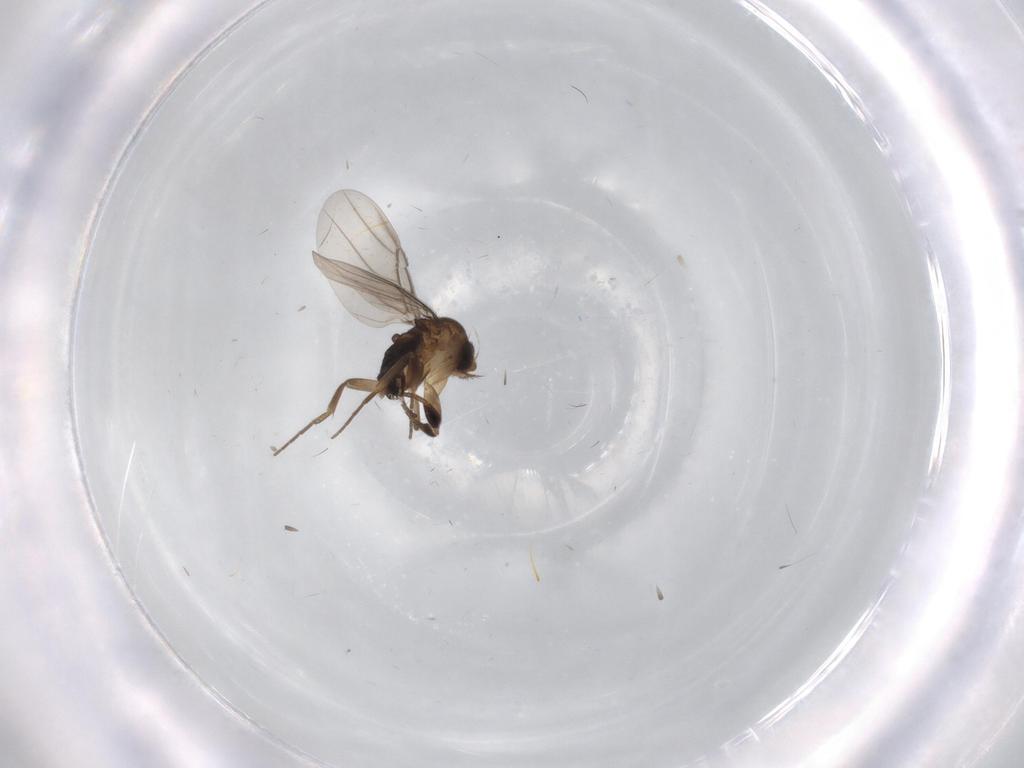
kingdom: Animalia
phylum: Arthropoda
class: Insecta
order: Diptera
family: Phoridae
